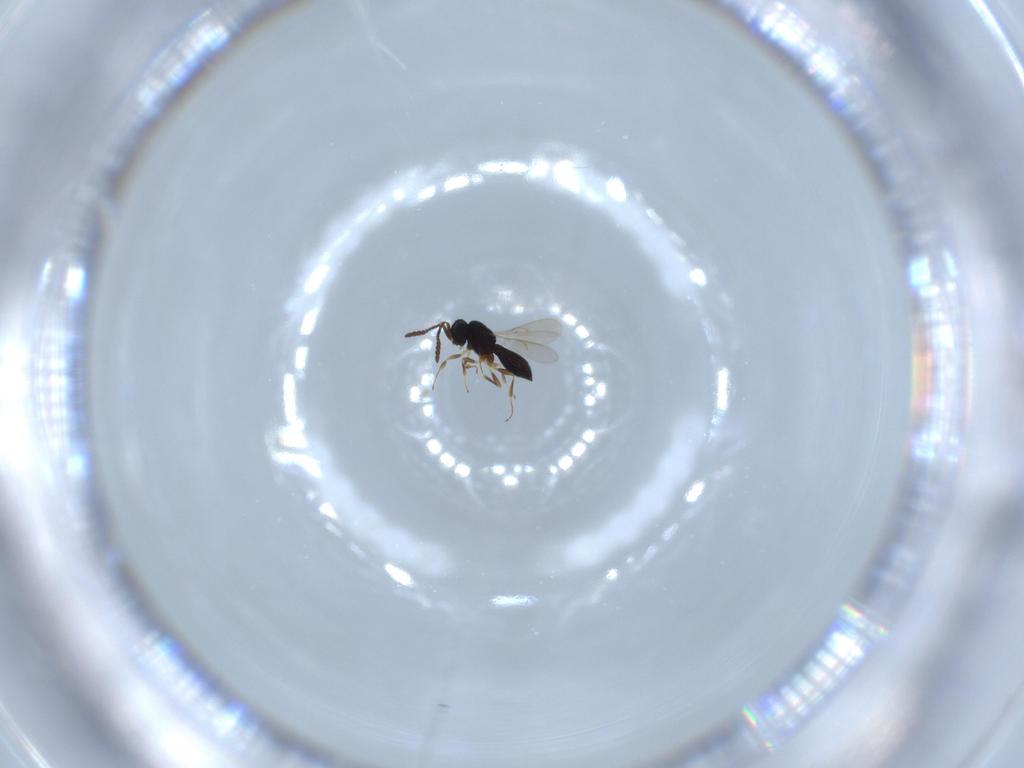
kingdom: Animalia
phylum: Arthropoda
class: Insecta
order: Hymenoptera
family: Scelionidae
